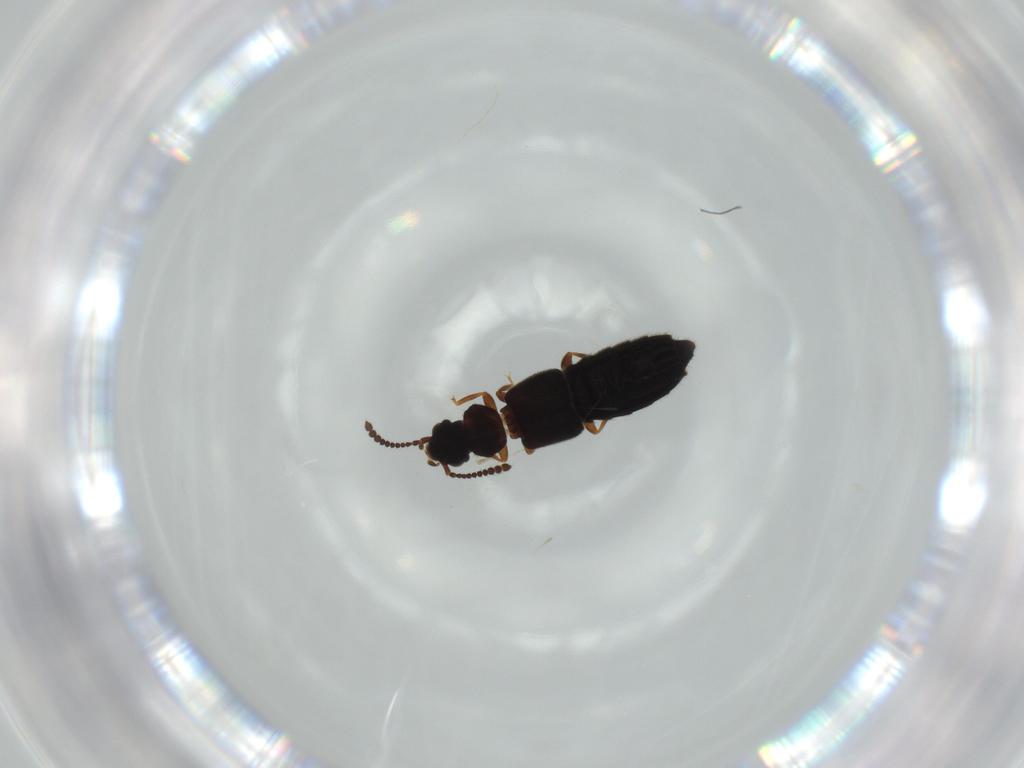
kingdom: Animalia
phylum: Arthropoda
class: Insecta
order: Coleoptera
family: Staphylinidae
